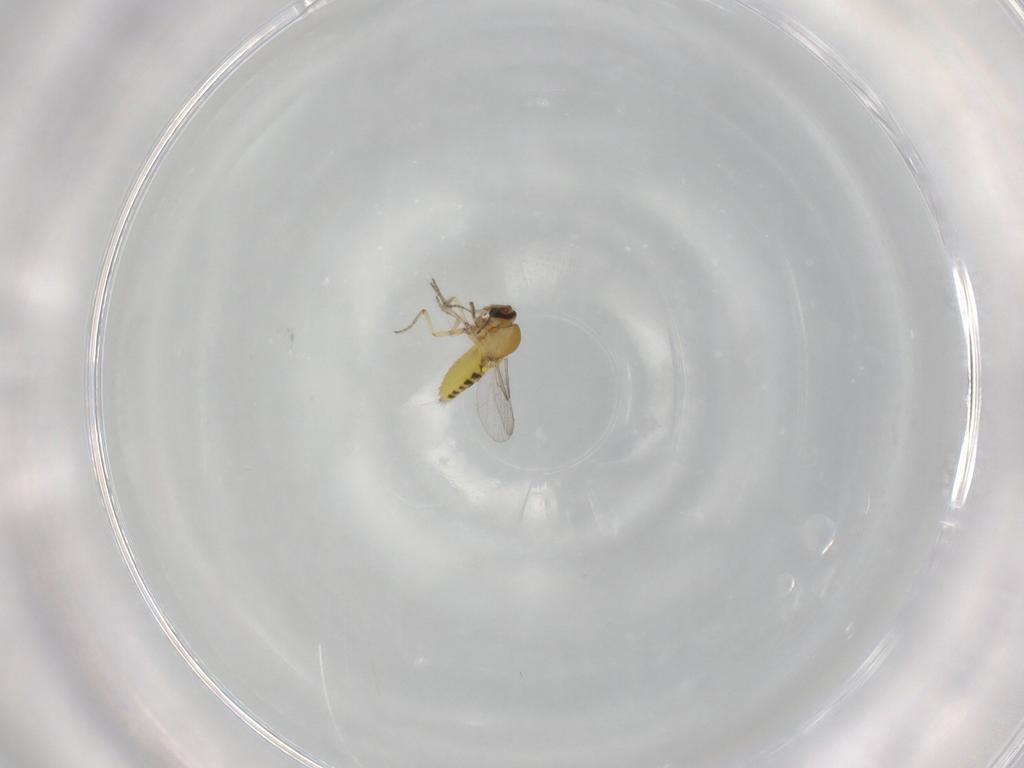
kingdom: Animalia
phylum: Arthropoda
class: Insecta
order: Diptera
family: Ceratopogonidae
